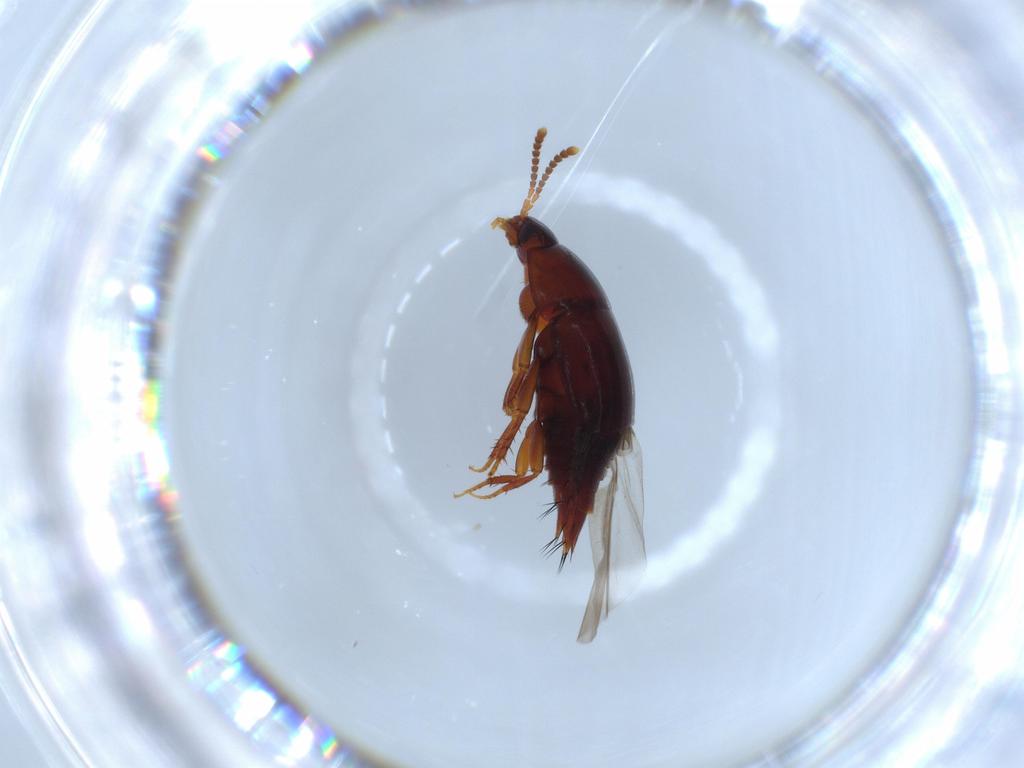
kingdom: Animalia
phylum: Arthropoda
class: Insecta
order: Coleoptera
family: Staphylinidae
